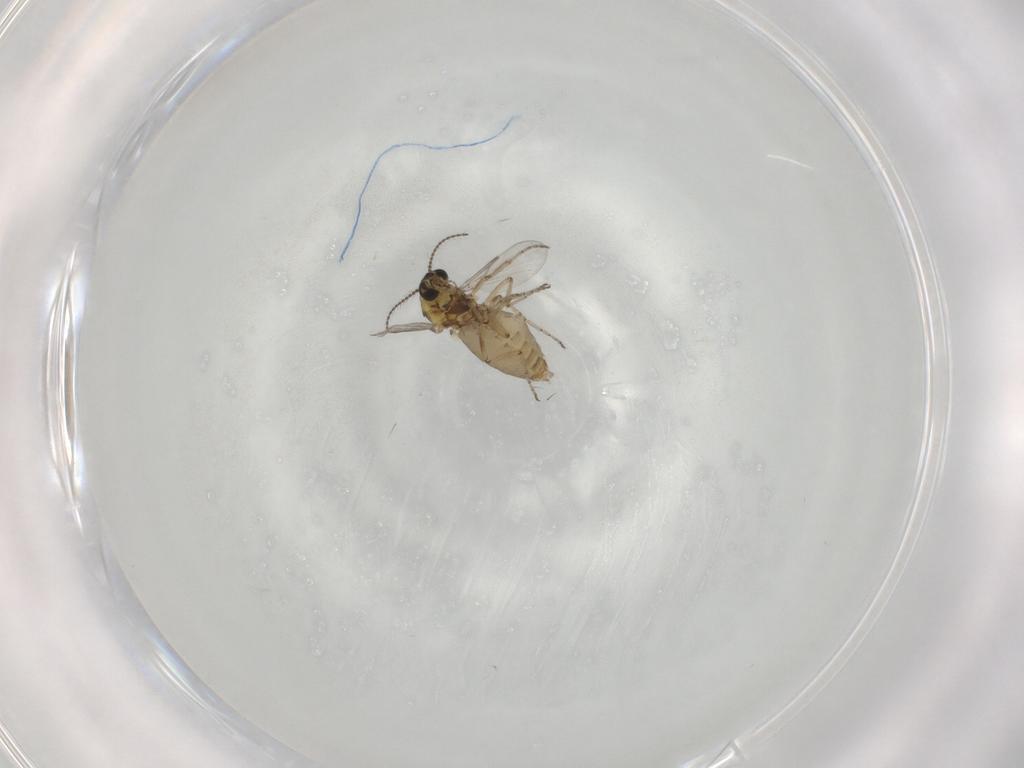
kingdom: Animalia
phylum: Arthropoda
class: Insecta
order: Diptera
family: Ceratopogonidae
